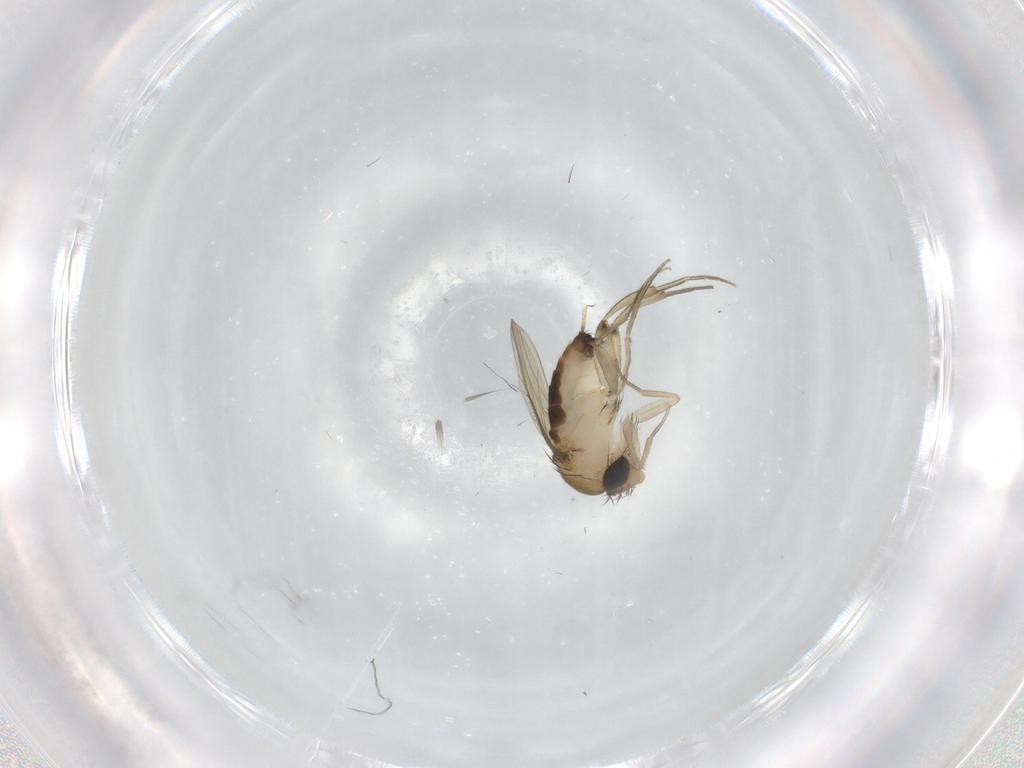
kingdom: Animalia
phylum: Arthropoda
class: Insecta
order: Diptera
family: Phoridae
